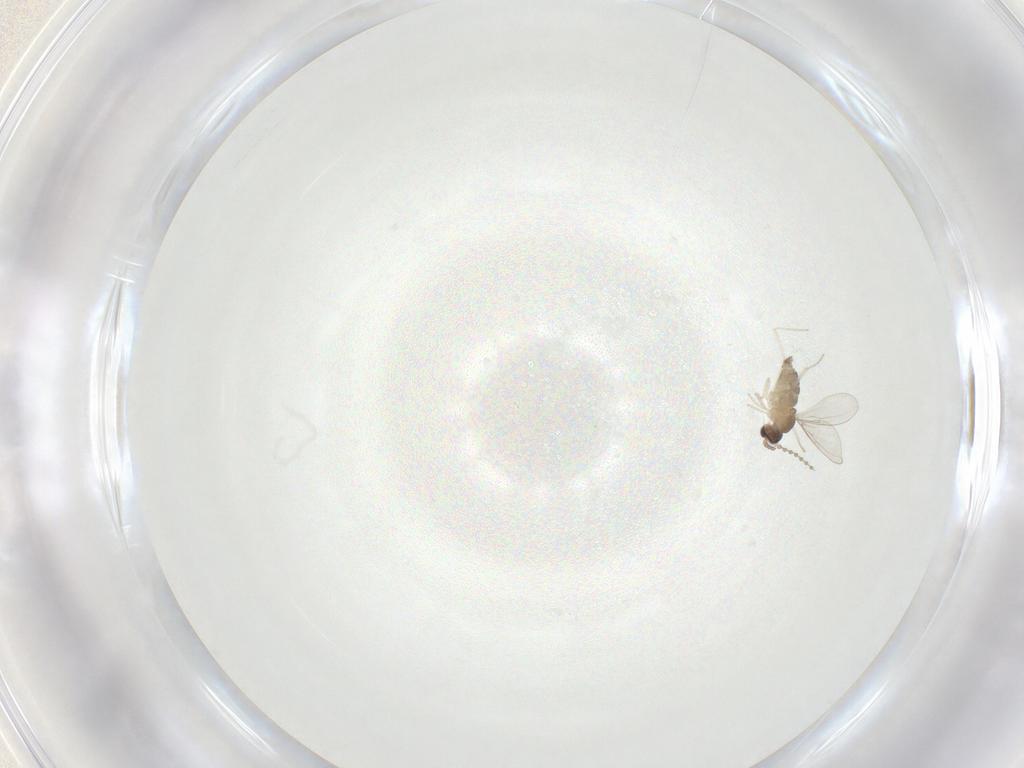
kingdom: Animalia
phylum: Arthropoda
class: Insecta
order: Diptera
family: Cecidomyiidae
